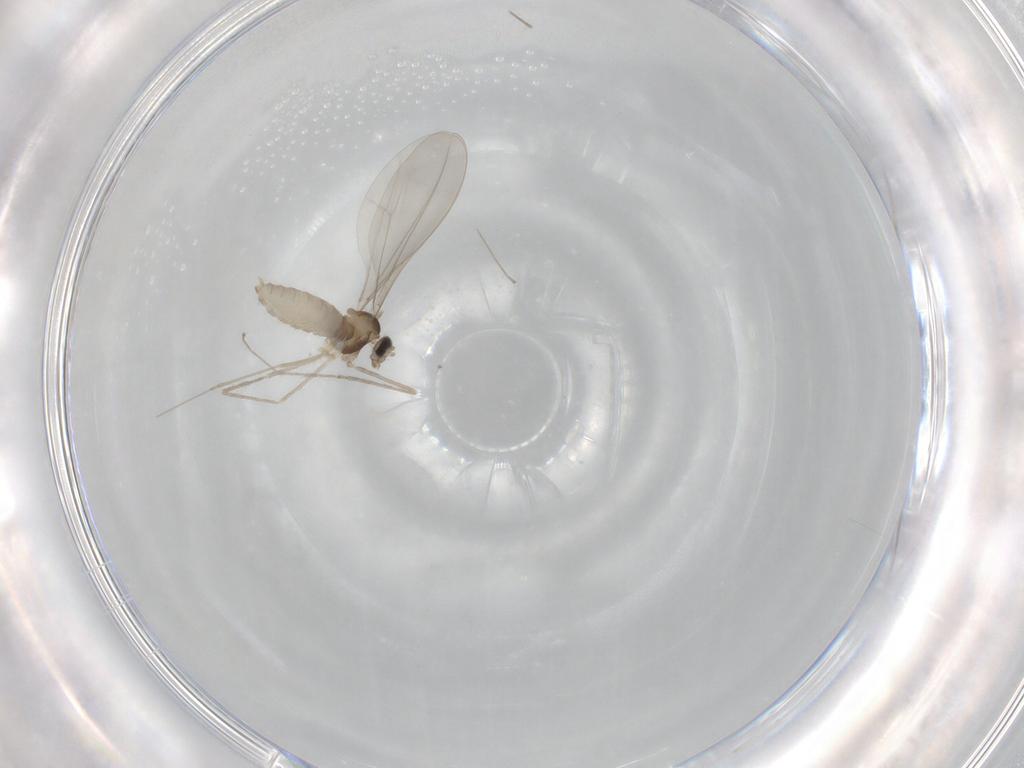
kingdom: Animalia
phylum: Arthropoda
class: Insecta
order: Diptera
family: Cecidomyiidae
